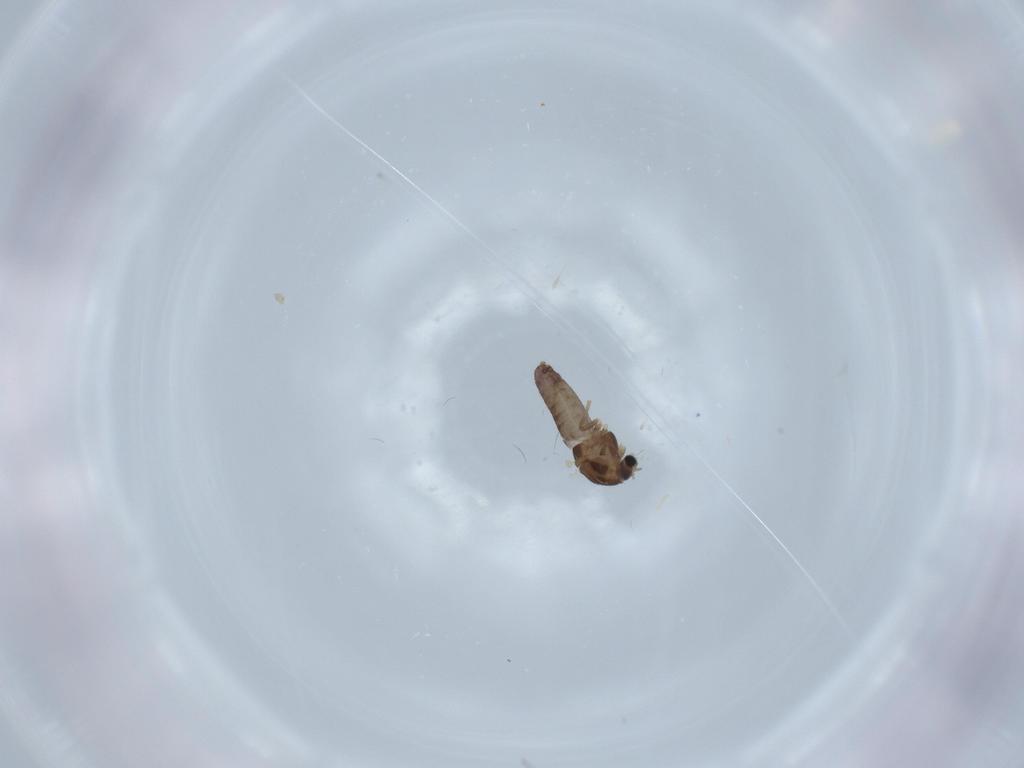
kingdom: Animalia
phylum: Arthropoda
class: Insecta
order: Diptera
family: Chironomidae
